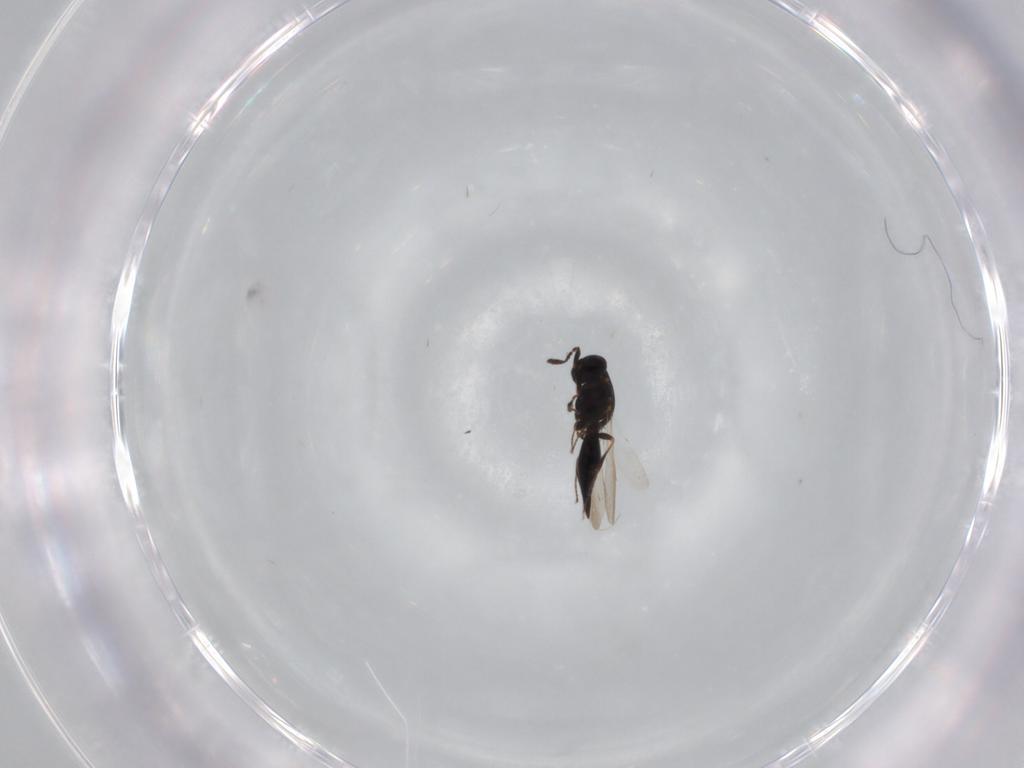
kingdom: Animalia
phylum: Arthropoda
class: Insecta
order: Hymenoptera
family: Braconidae
